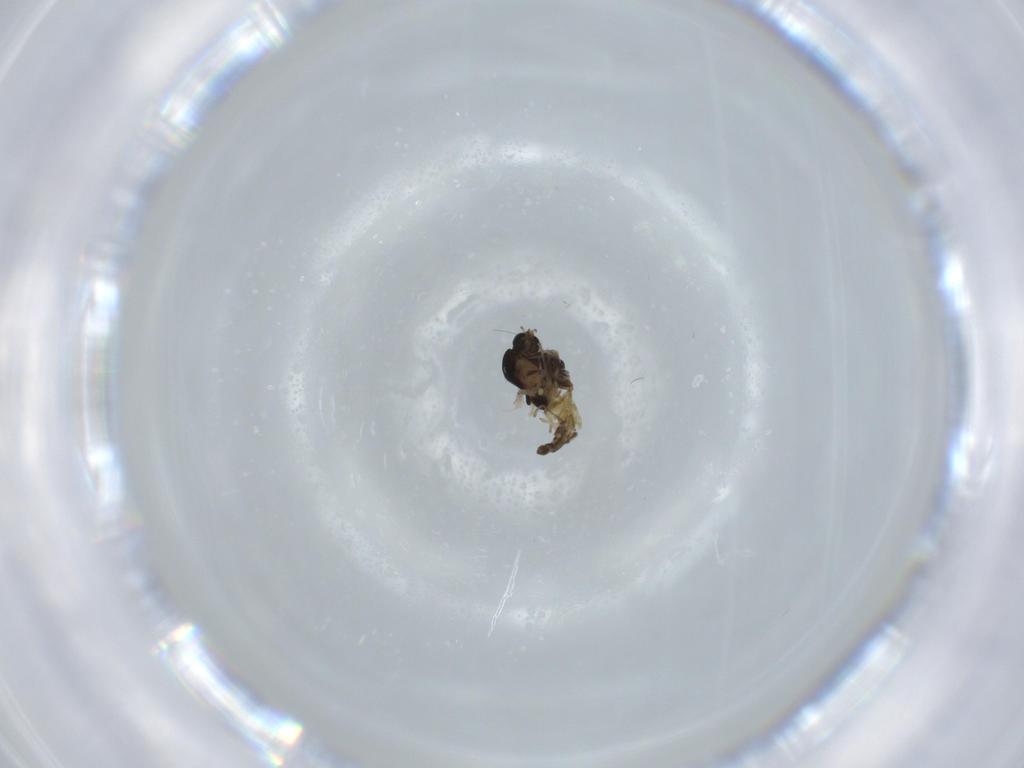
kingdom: Animalia
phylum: Arthropoda
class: Insecta
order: Diptera
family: Chironomidae
